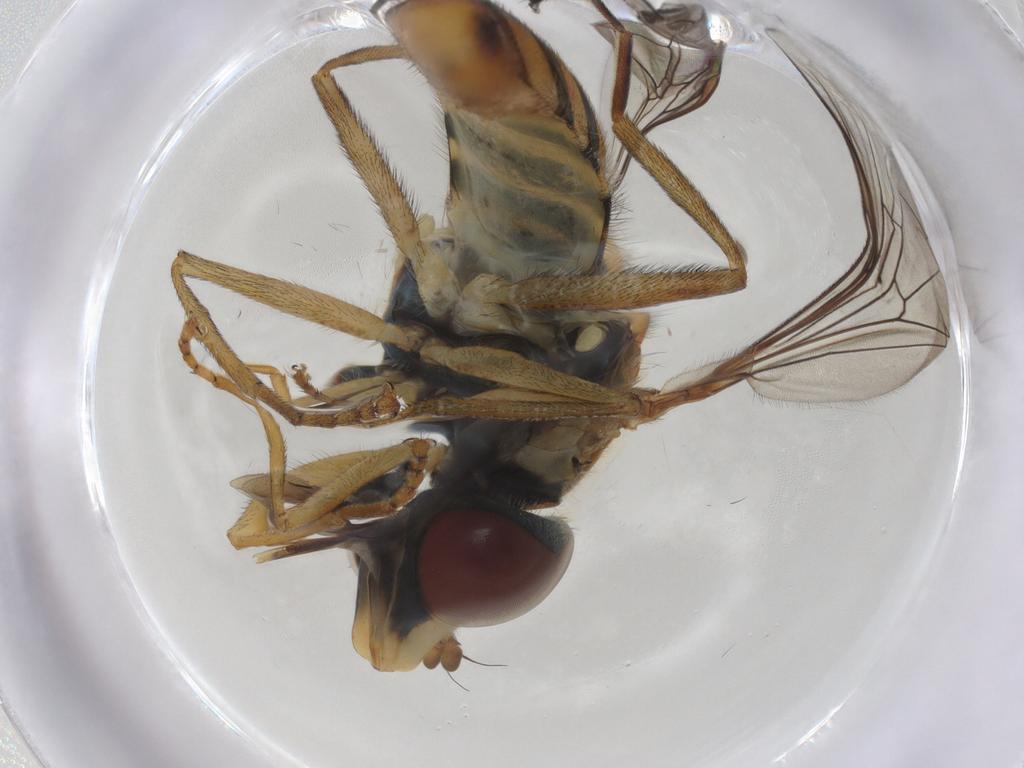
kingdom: Animalia
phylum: Arthropoda
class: Insecta
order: Diptera
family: Syrphidae
